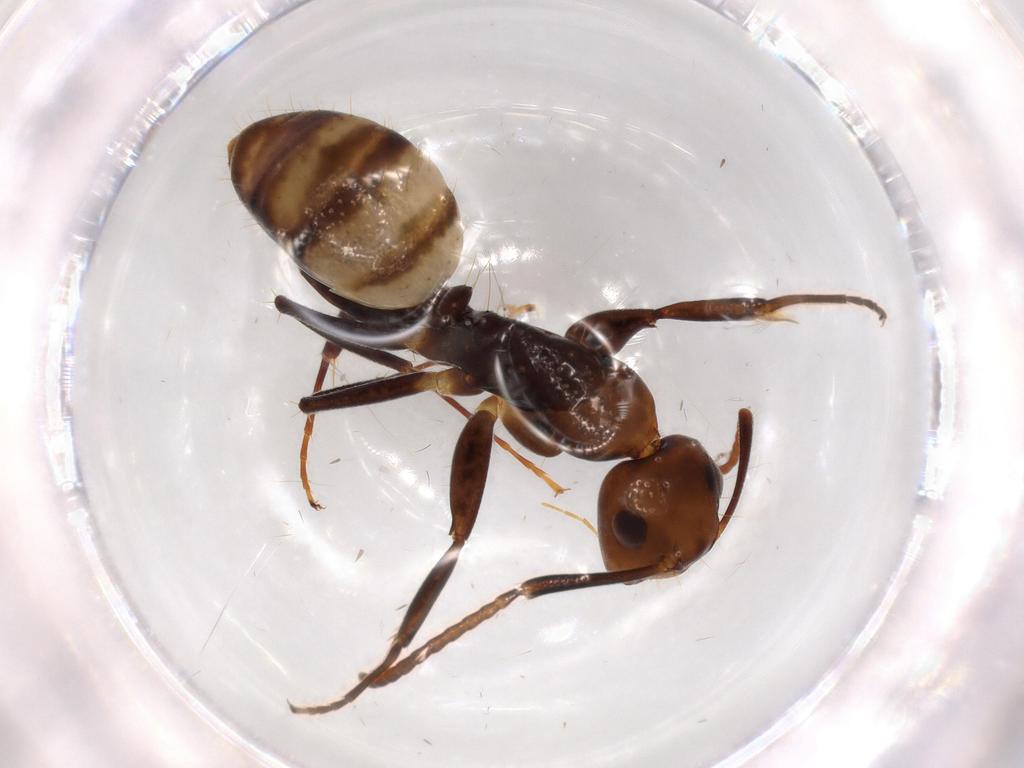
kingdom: Animalia
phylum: Arthropoda
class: Insecta
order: Hymenoptera
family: Formicidae
